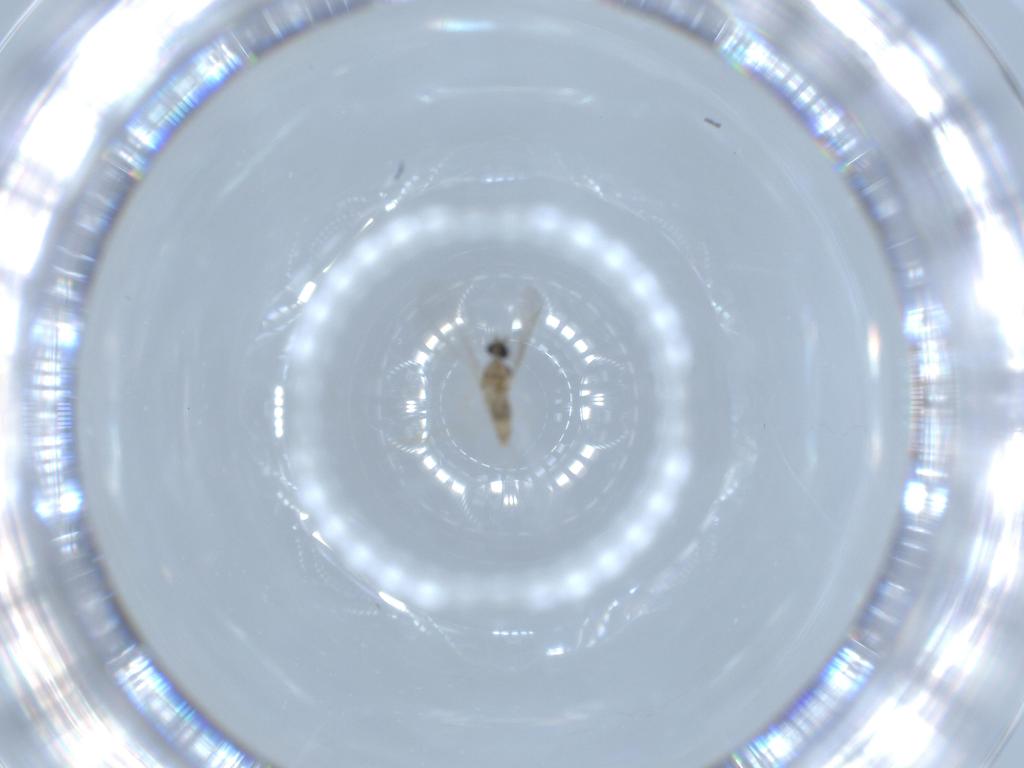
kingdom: Animalia
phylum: Arthropoda
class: Insecta
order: Diptera
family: Cecidomyiidae
